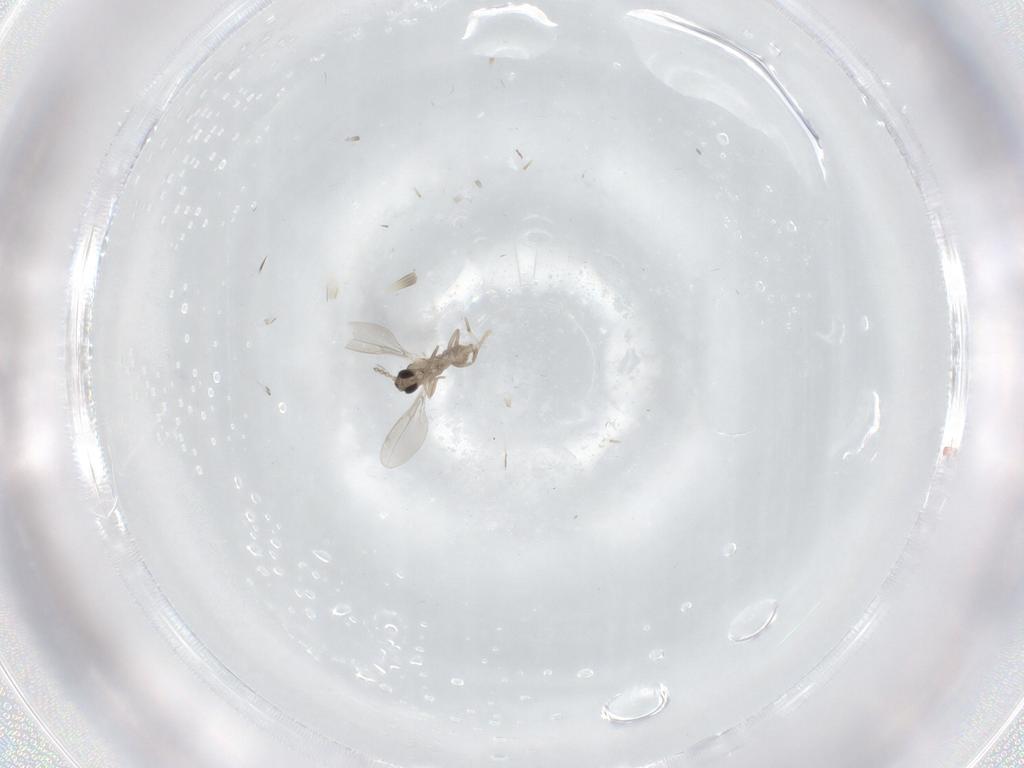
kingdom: Animalia
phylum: Arthropoda
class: Insecta
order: Diptera
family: Cecidomyiidae
